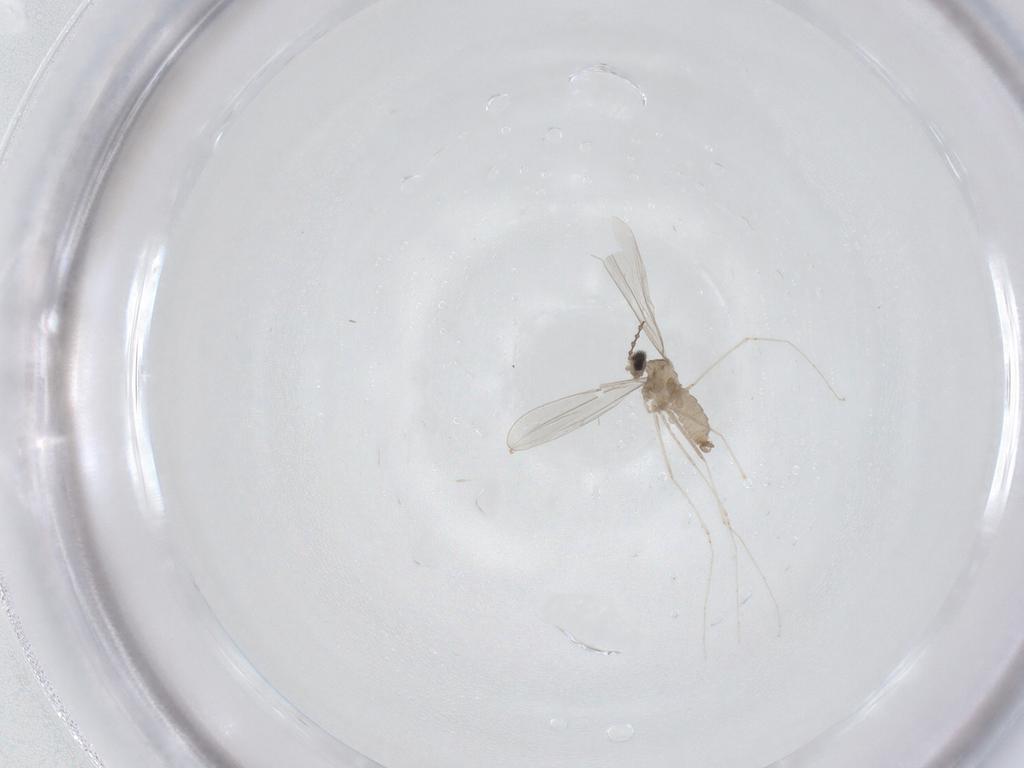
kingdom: Animalia
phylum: Arthropoda
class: Insecta
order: Diptera
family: Cecidomyiidae
